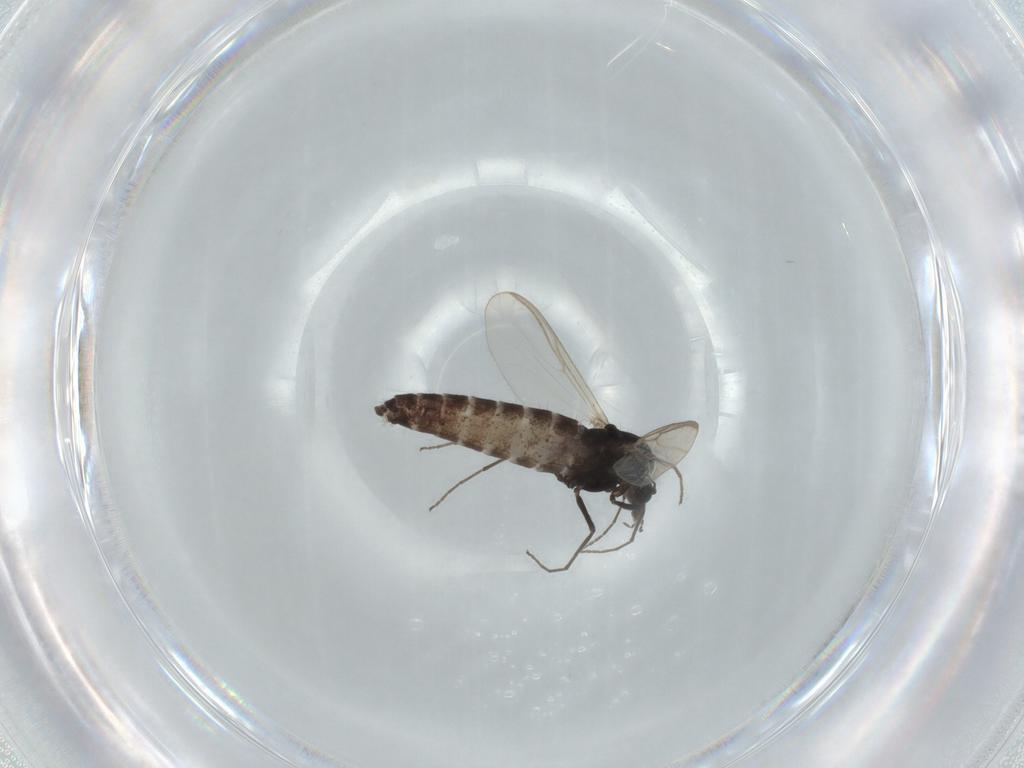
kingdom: Animalia
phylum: Arthropoda
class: Insecta
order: Diptera
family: Chironomidae
